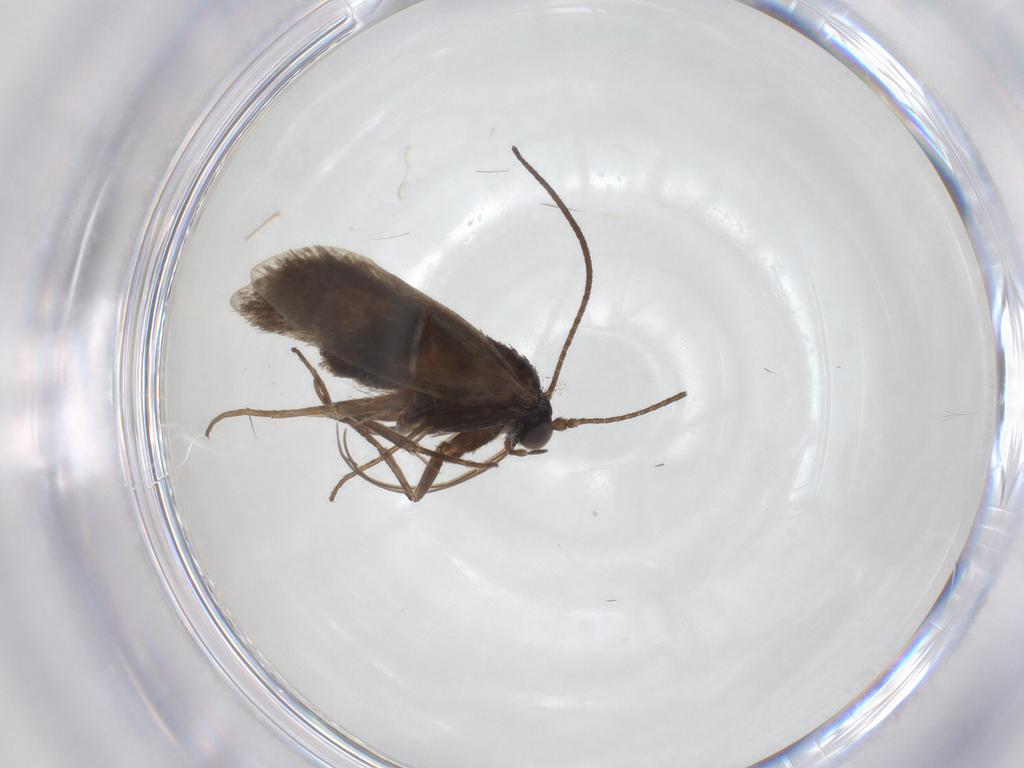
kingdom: Animalia
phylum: Arthropoda
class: Insecta
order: Lepidoptera
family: Adelidae
